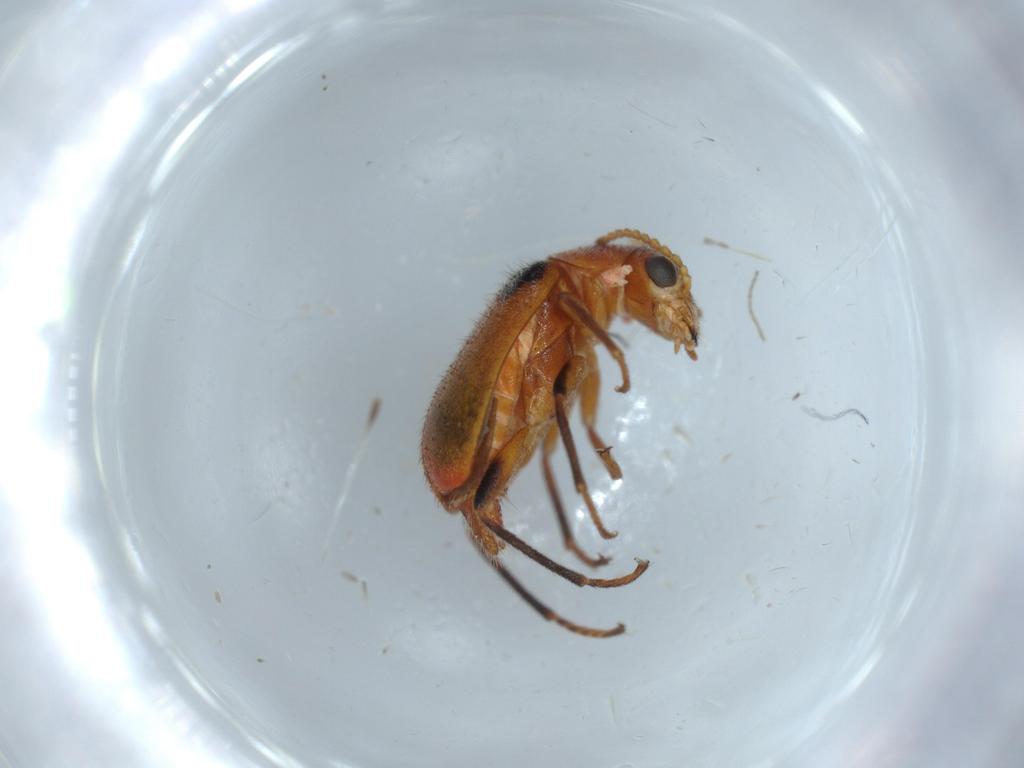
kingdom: Animalia
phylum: Arthropoda
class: Insecta
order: Coleoptera
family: Melyridae
